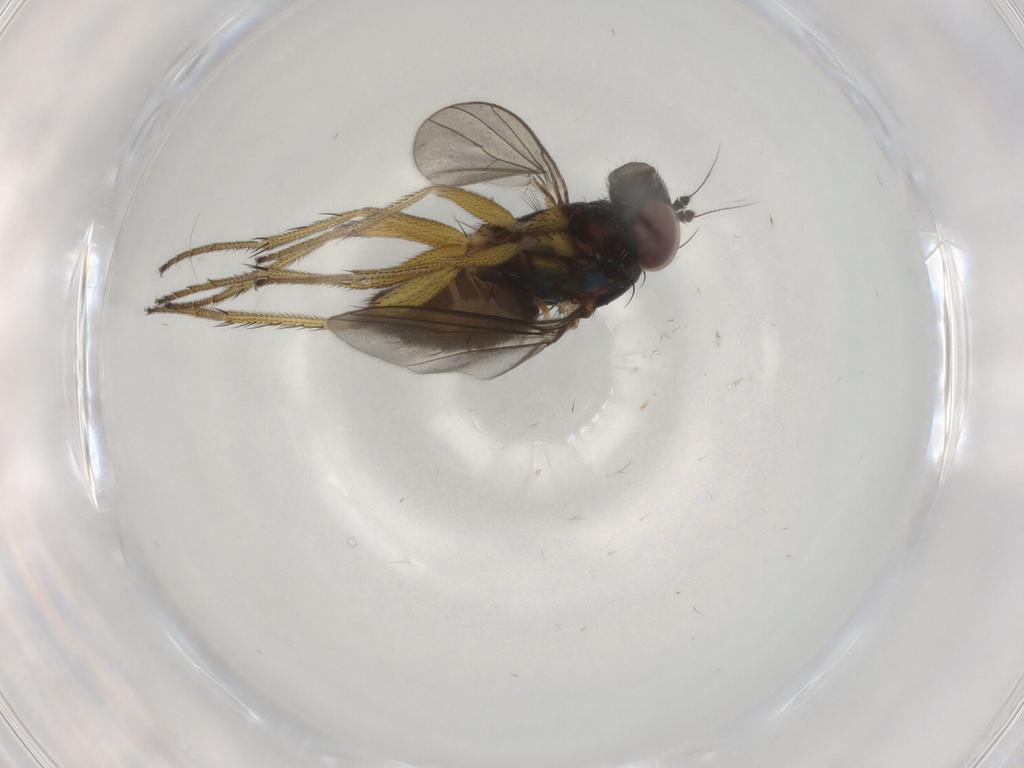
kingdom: Animalia
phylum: Arthropoda
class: Insecta
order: Diptera
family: Dolichopodidae
